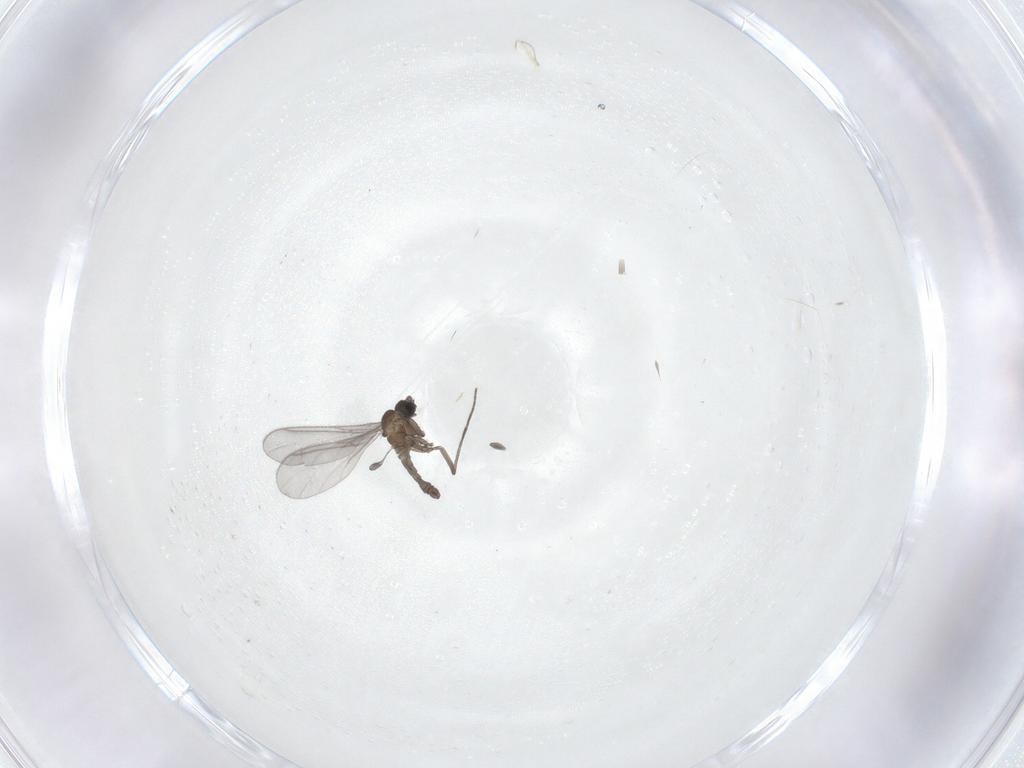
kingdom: Animalia
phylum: Arthropoda
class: Insecta
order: Diptera
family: Sciaridae
